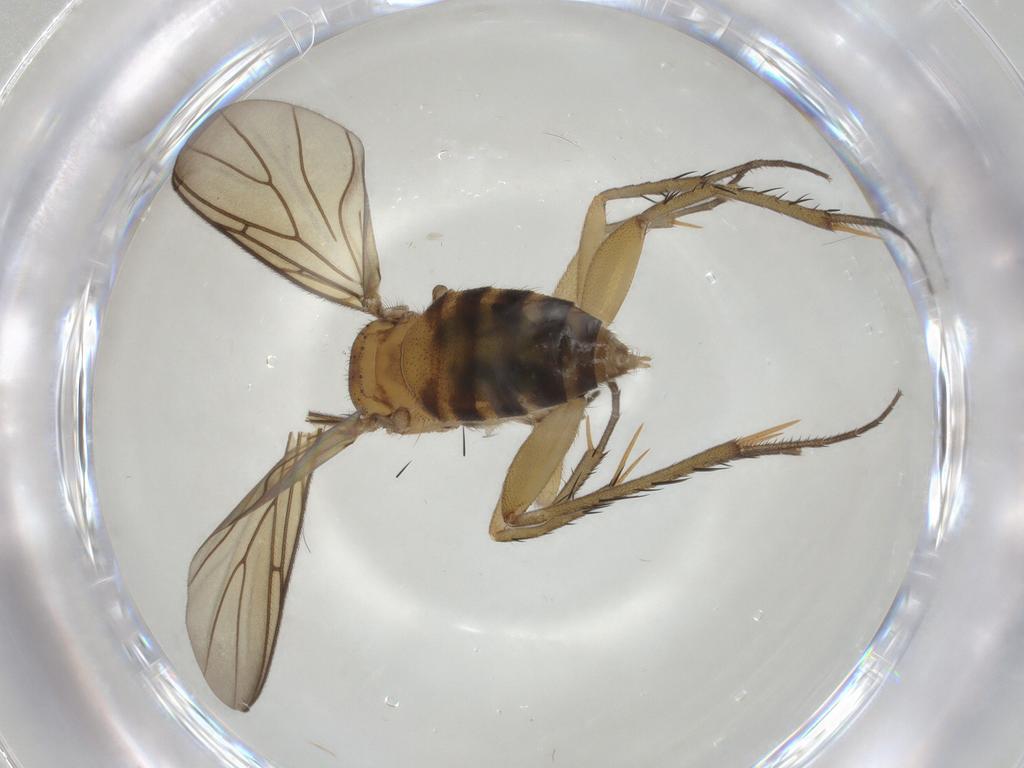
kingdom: Animalia
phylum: Arthropoda
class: Insecta
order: Diptera
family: Mycetophilidae
